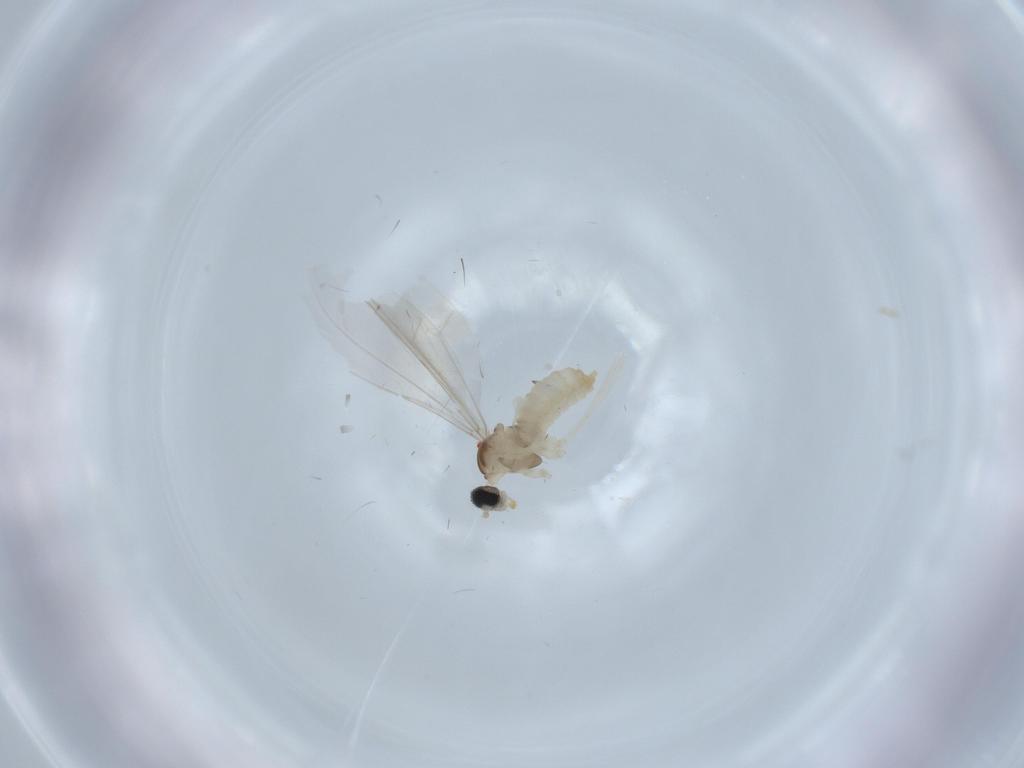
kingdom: Animalia
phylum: Arthropoda
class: Insecta
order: Diptera
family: Cecidomyiidae
